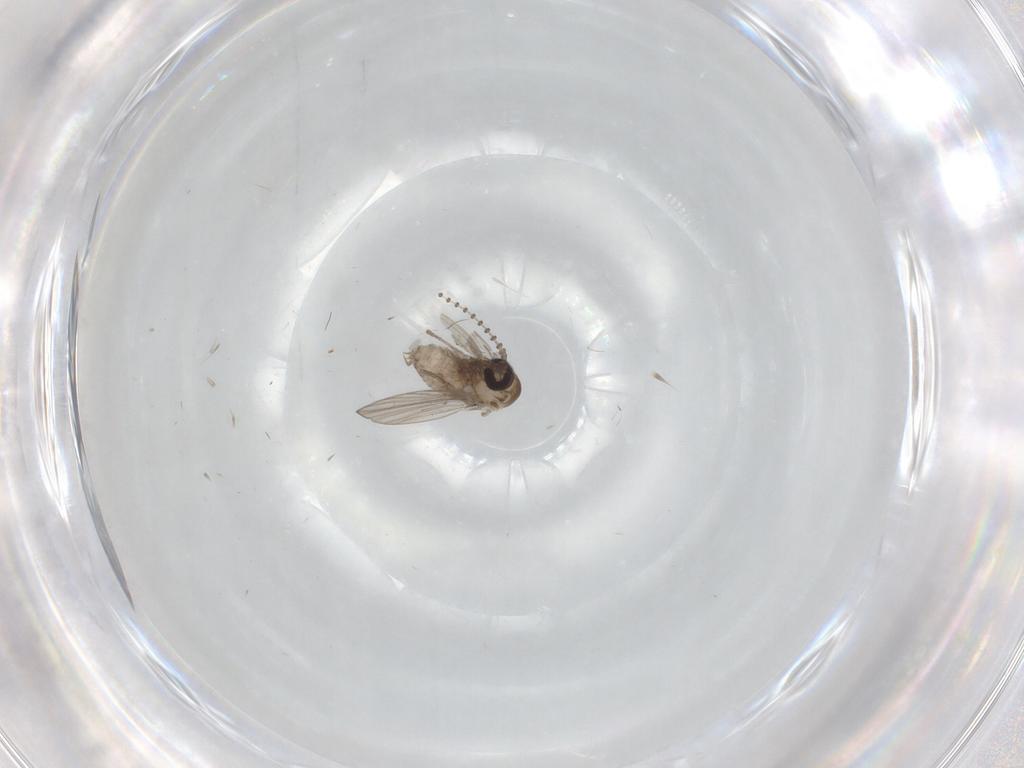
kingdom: Animalia
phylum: Arthropoda
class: Insecta
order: Diptera
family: Psychodidae
